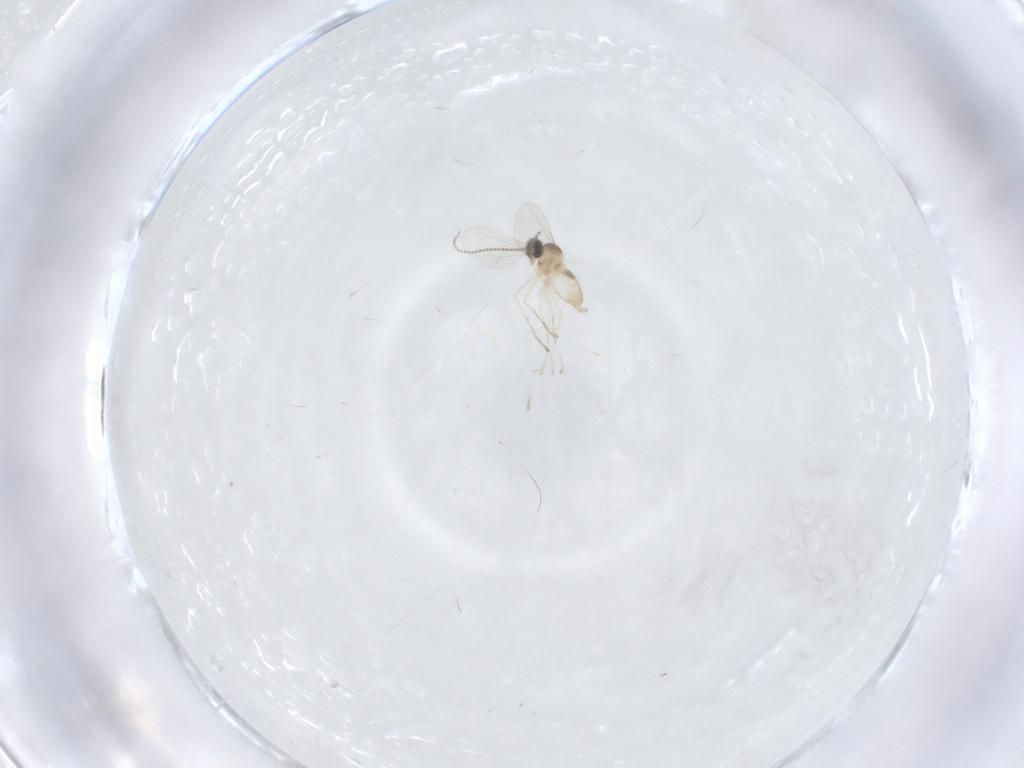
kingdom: Animalia
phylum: Arthropoda
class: Insecta
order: Diptera
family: Cecidomyiidae
